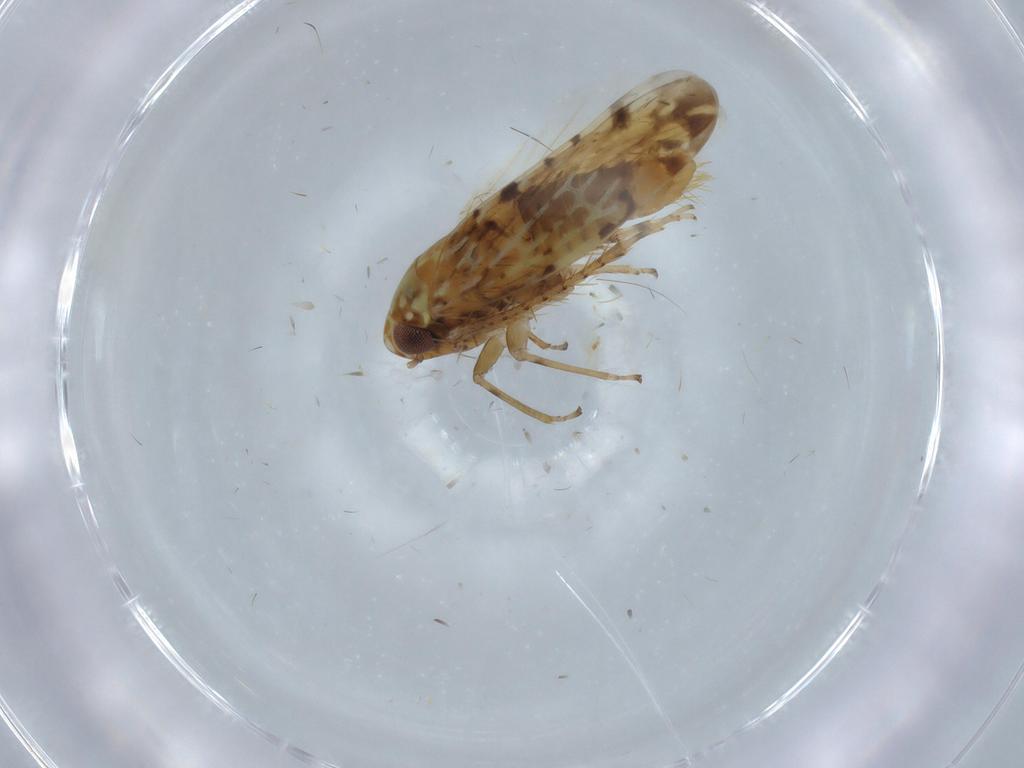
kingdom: Animalia
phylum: Arthropoda
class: Insecta
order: Hemiptera
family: Cicadellidae
